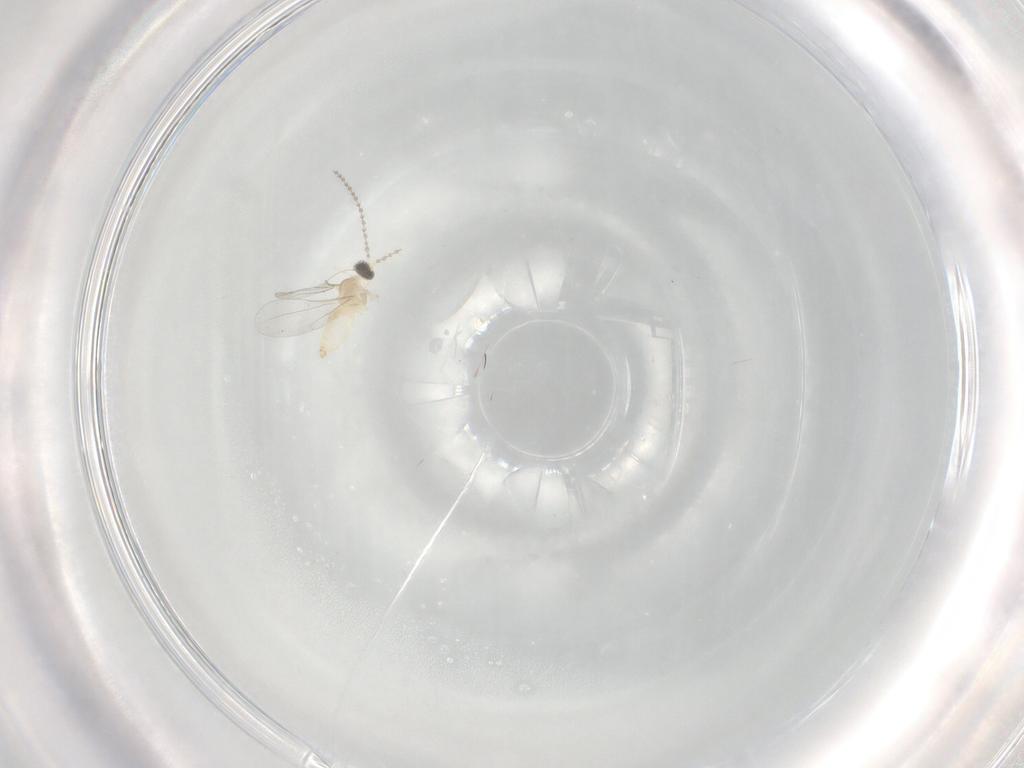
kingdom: Animalia
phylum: Arthropoda
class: Insecta
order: Diptera
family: Cecidomyiidae
